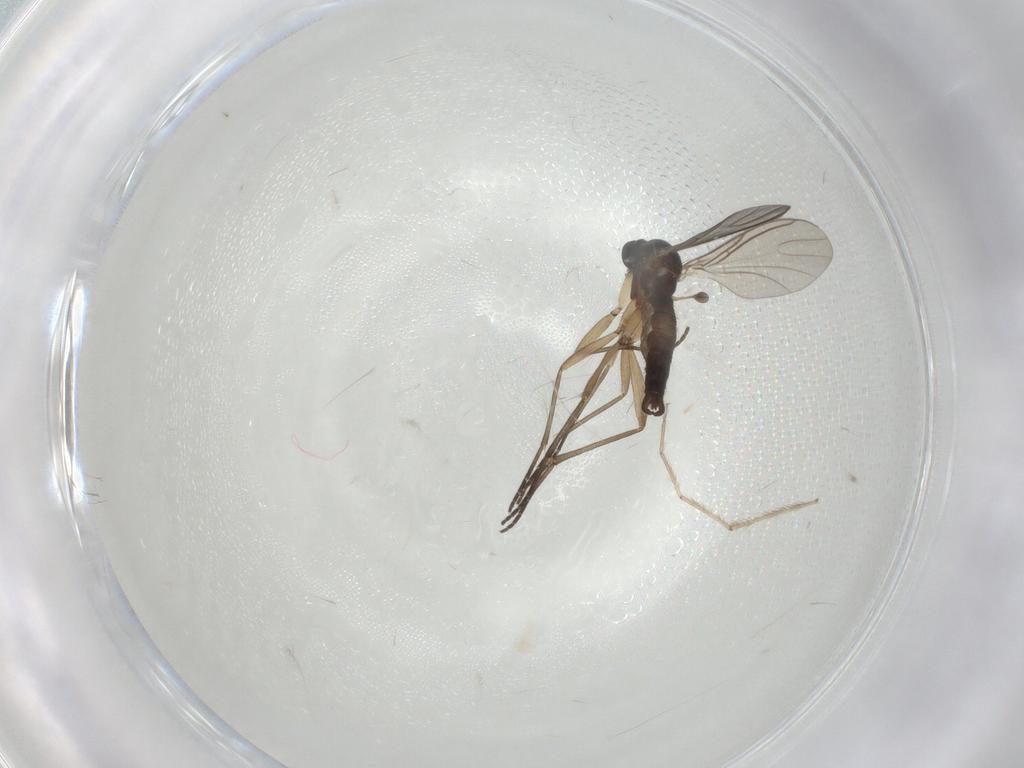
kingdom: Animalia
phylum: Arthropoda
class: Insecta
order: Diptera
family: Sciaridae
